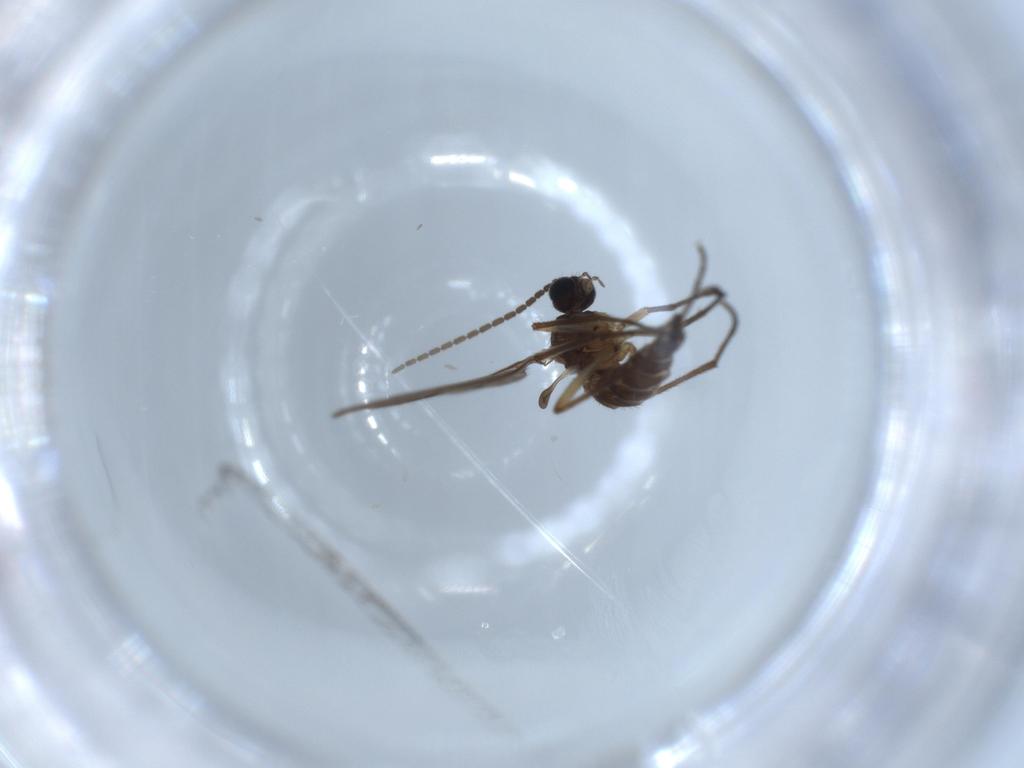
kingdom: Animalia
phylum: Arthropoda
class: Insecta
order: Diptera
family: Sciaridae
